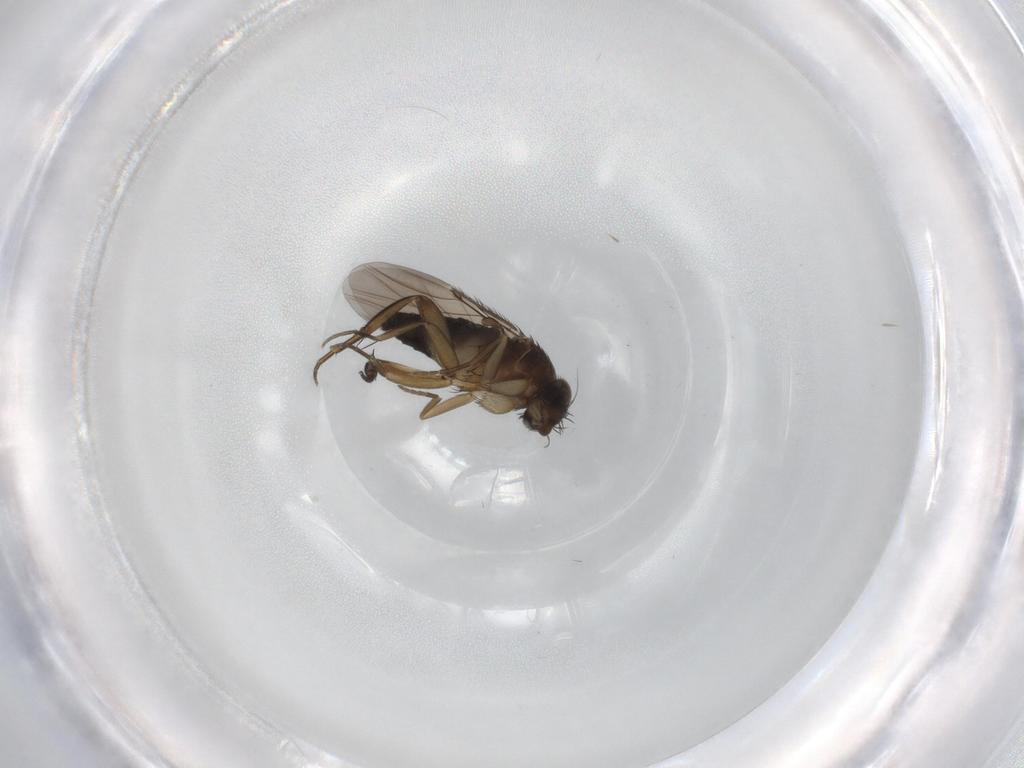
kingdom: Animalia
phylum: Arthropoda
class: Insecta
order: Diptera
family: Phoridae
